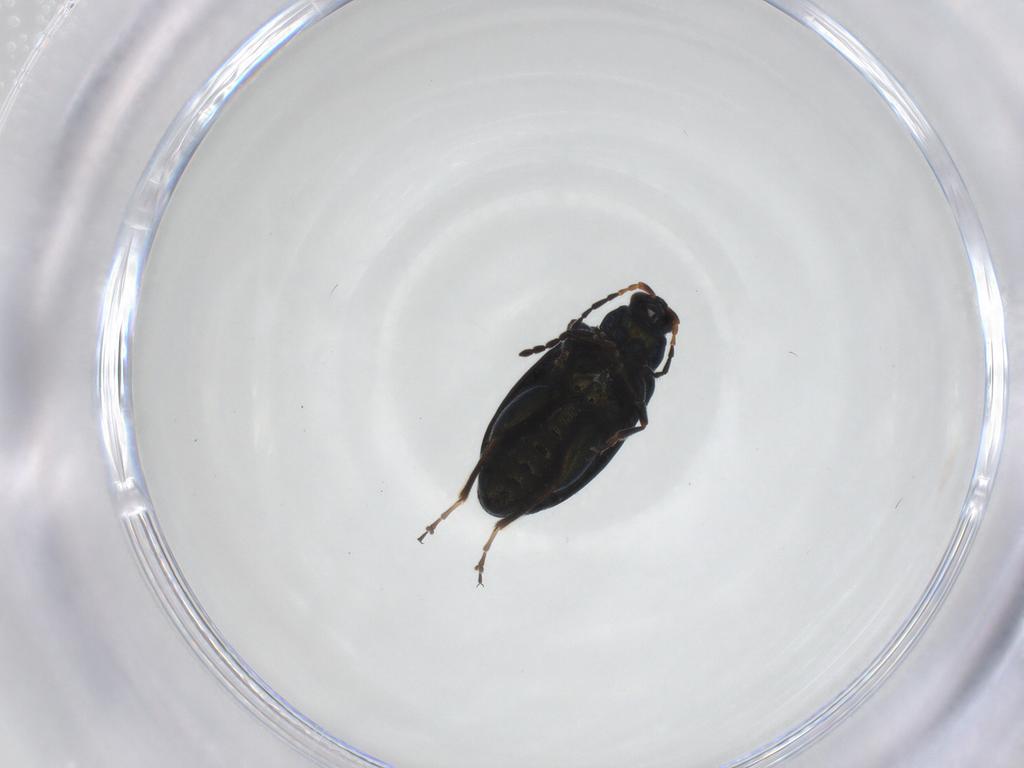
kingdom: Animalia
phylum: Arthropoda
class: Insecta
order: Coleoptera
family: Chrysomelidae
